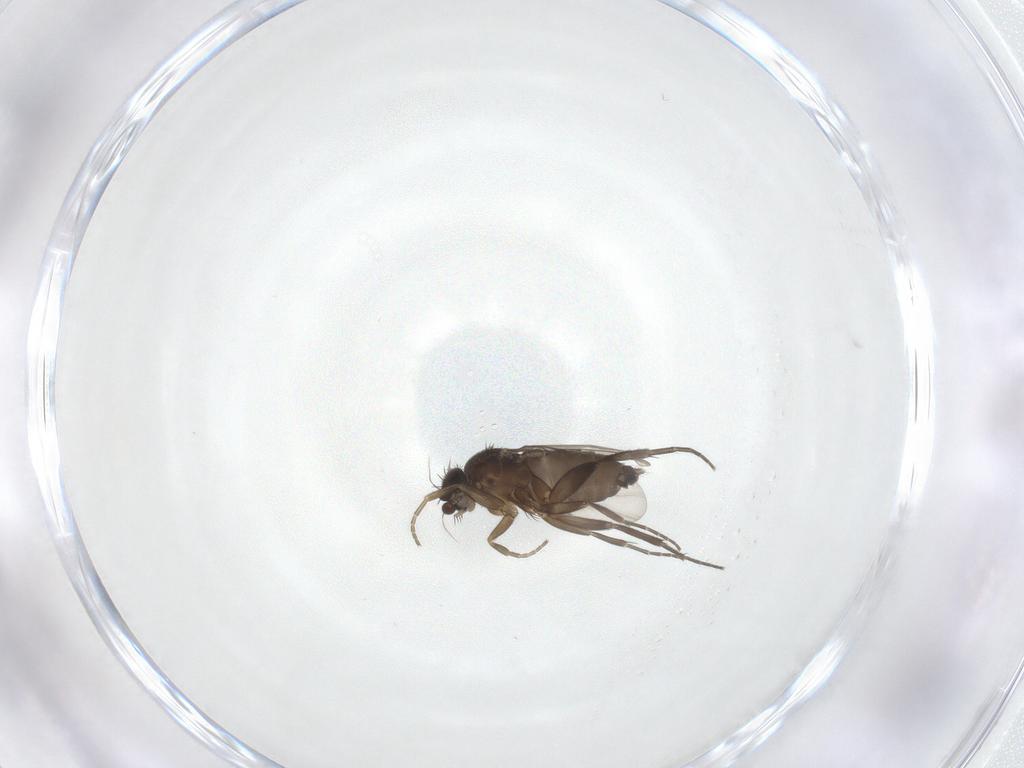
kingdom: Animalia
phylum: Arthropoda
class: Insecta
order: Diptera
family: Phoridae
